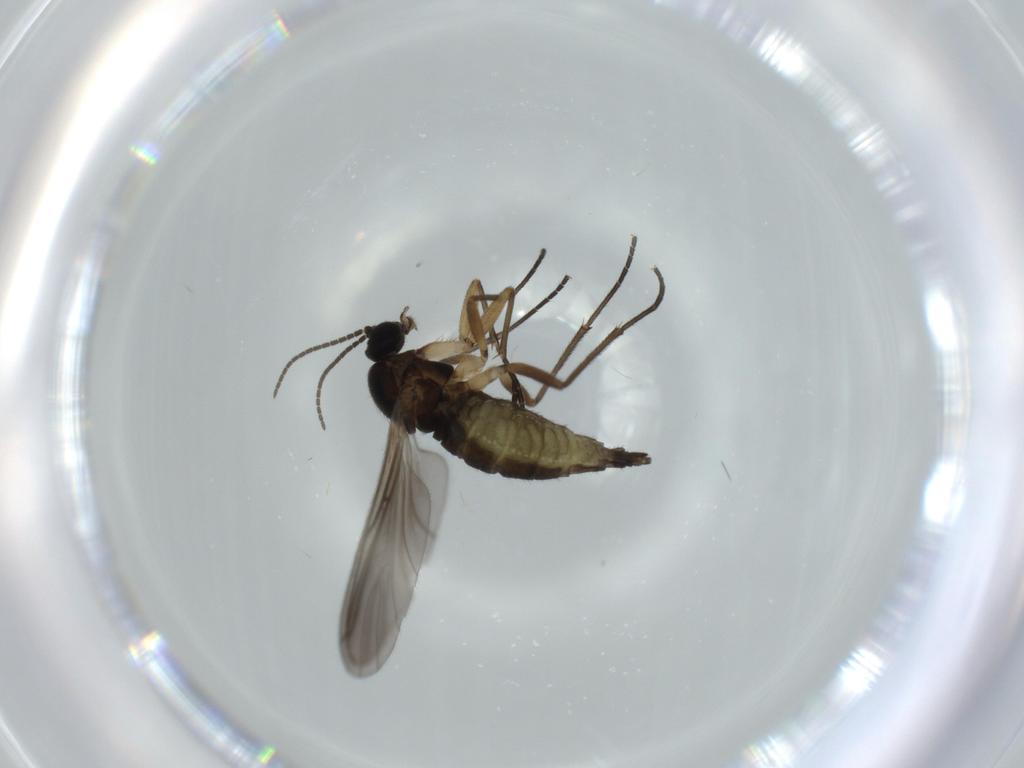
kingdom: Animalia
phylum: Arthropoda
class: Insecta
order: Diptera
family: Sciaridae
